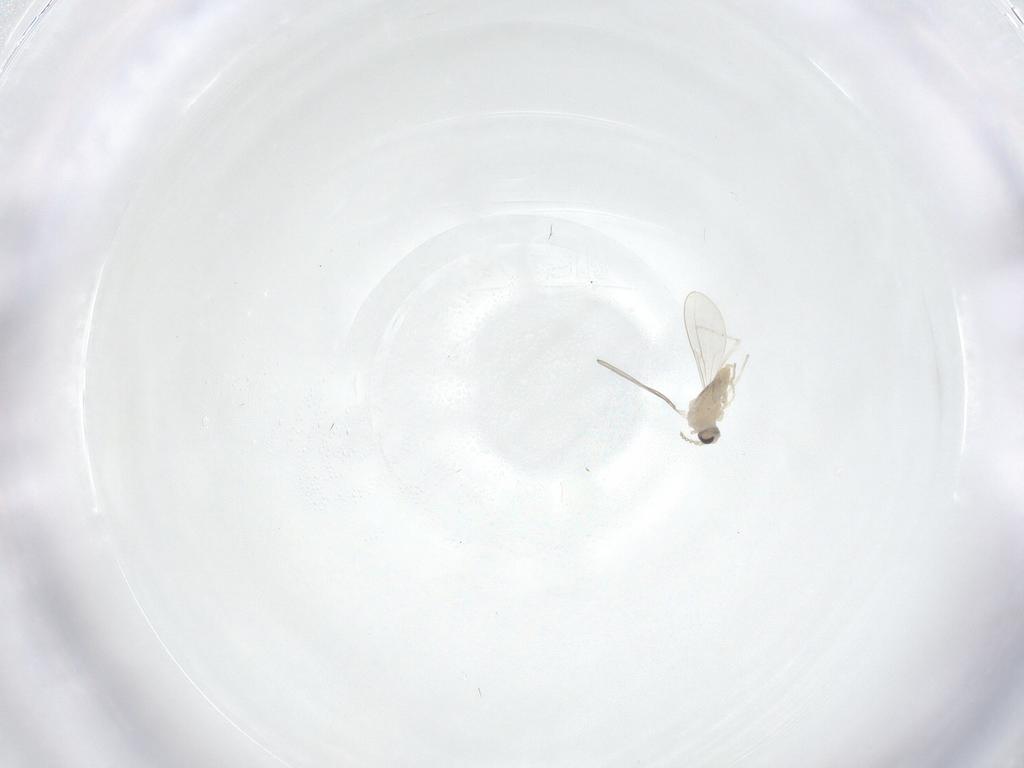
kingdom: Animalia
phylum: Arthropoda
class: Insecta
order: Diptera
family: Cecidomyiidae
